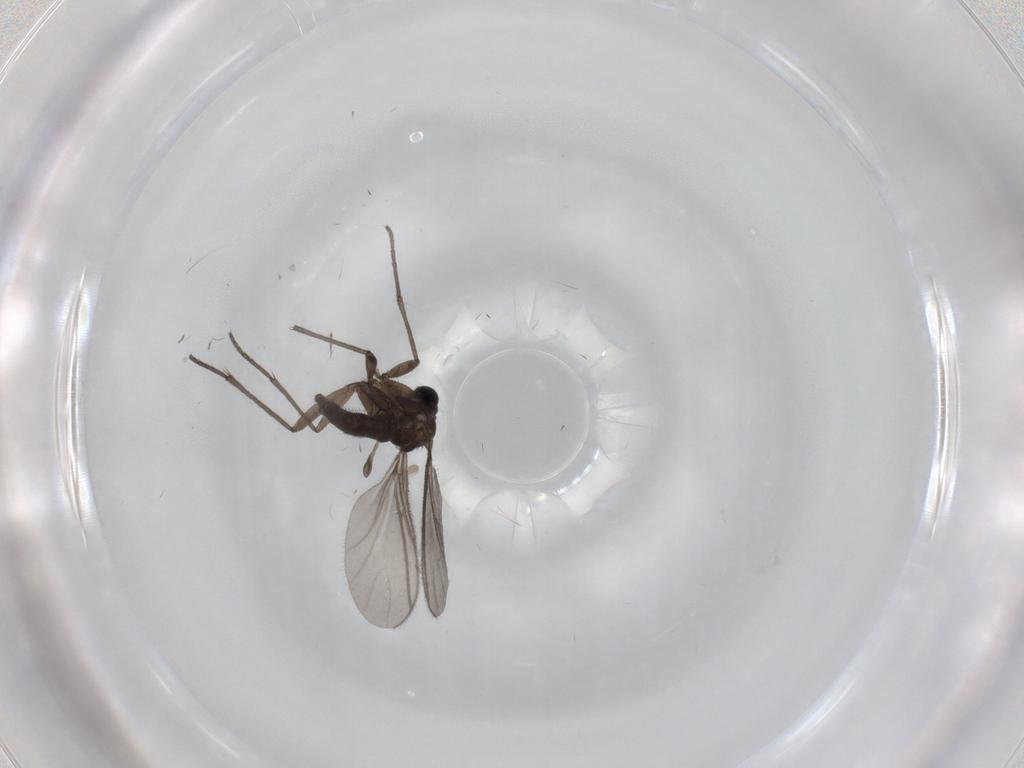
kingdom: Animalia
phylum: Arthropoda
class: Insecta
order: Diptera
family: Sciaridae
